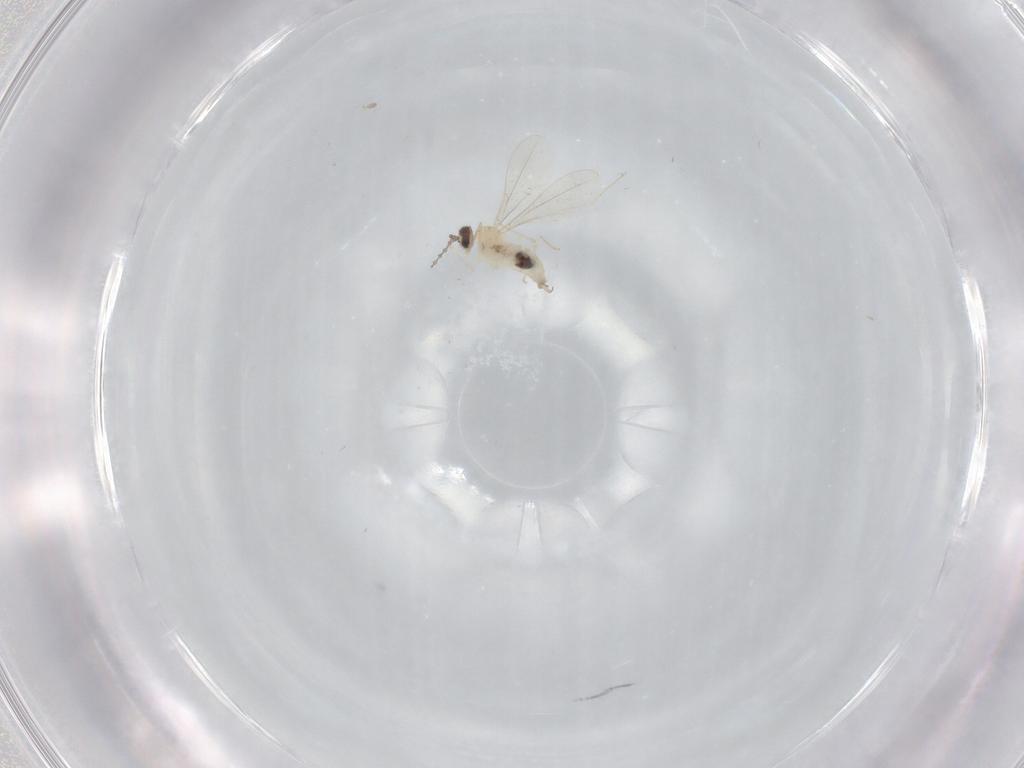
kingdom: Animalia
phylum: Arthropoda
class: Insecta
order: Diptera
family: Cecidomyiidae
